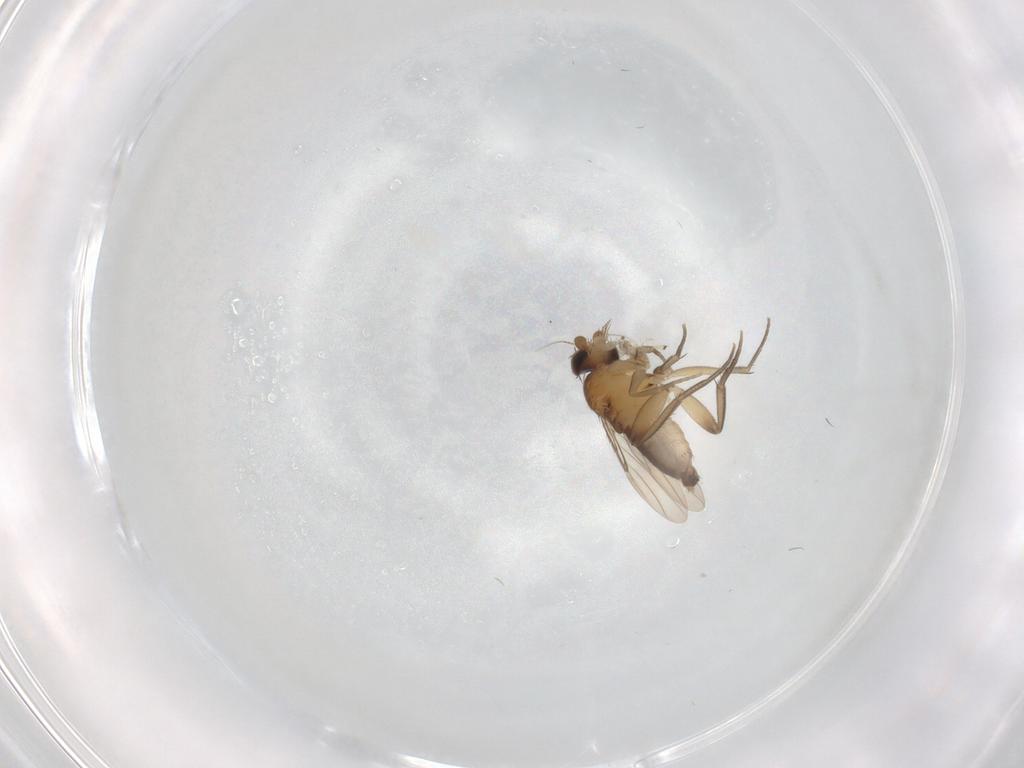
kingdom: Animalia
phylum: Arthropoda
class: Insecta
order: Diptera
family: Phoridae
